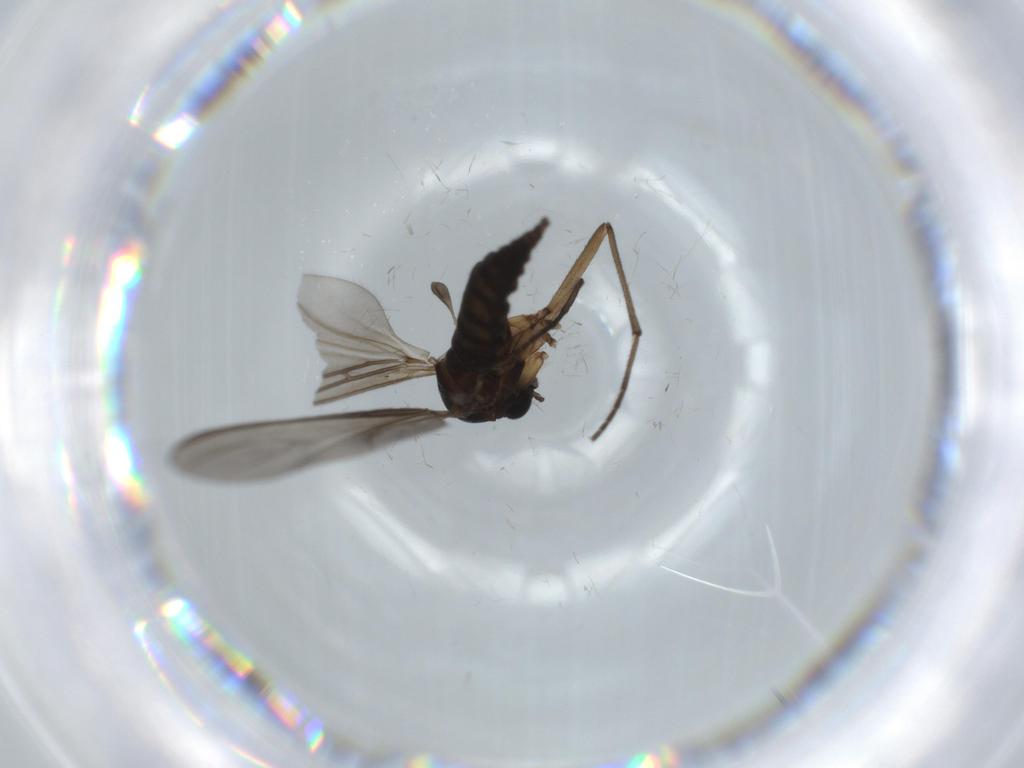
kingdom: Animalia
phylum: Arthropoda
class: Insecta
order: Diptera
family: Sciaridae
